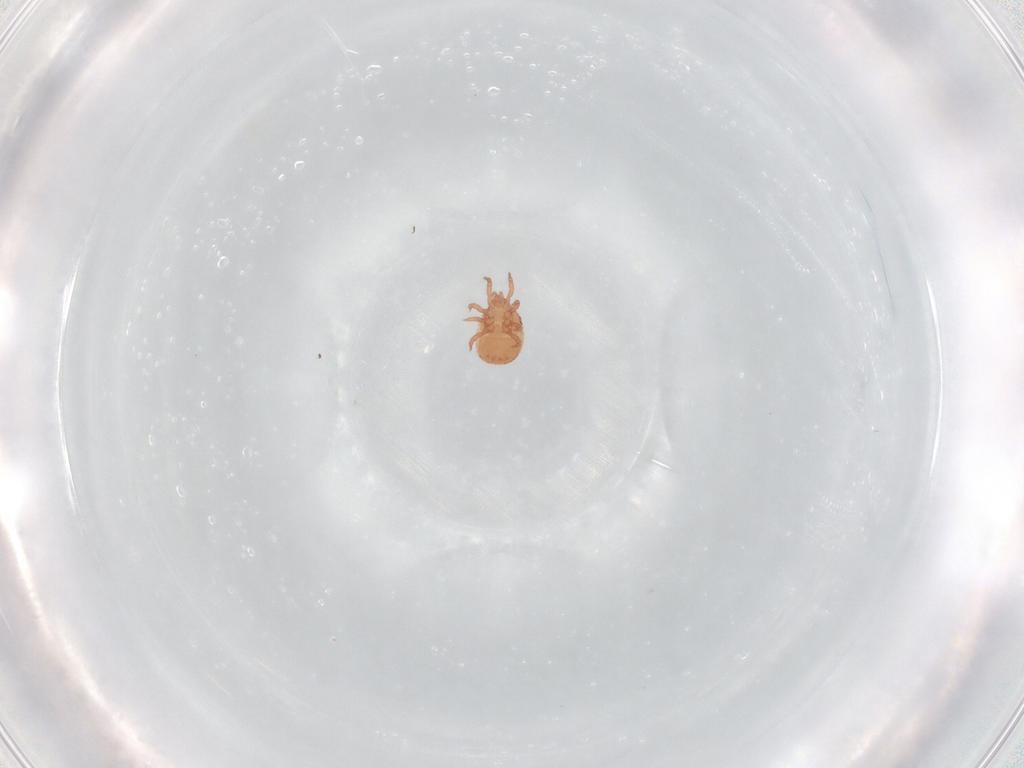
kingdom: Animalia
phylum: Arthropoda
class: Arachnida
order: Mesostigmata
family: Zerconidae
